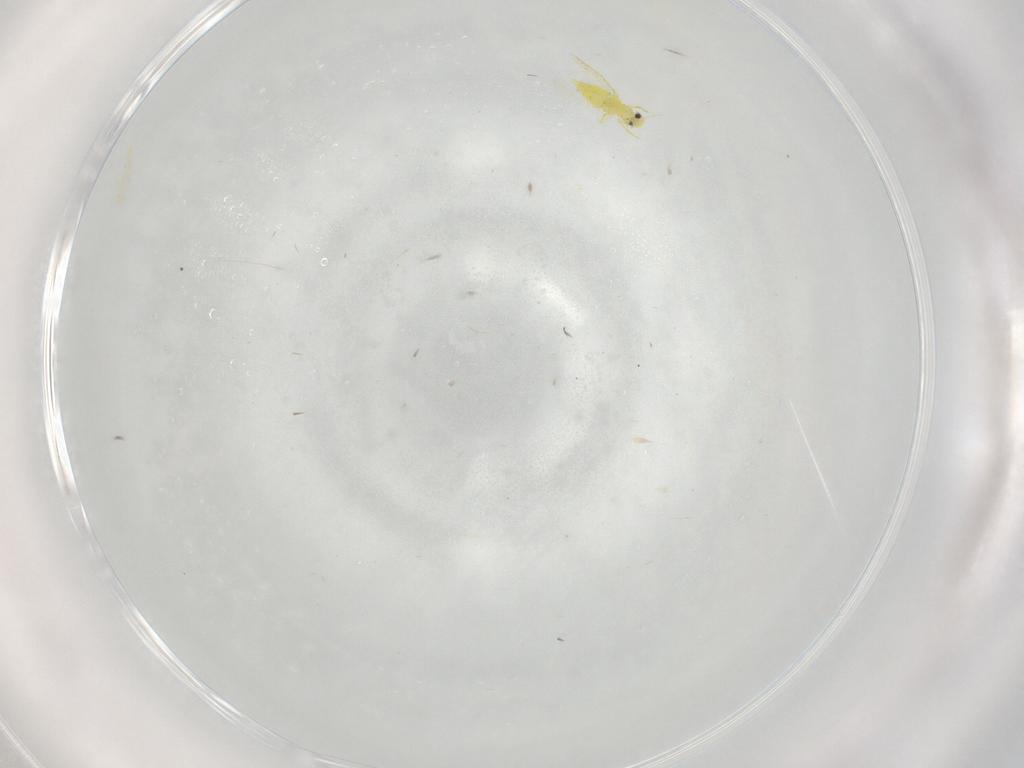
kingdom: Animalia
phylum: Arthropoda
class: Insecta
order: Hemiptera
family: Aleyrodidae
